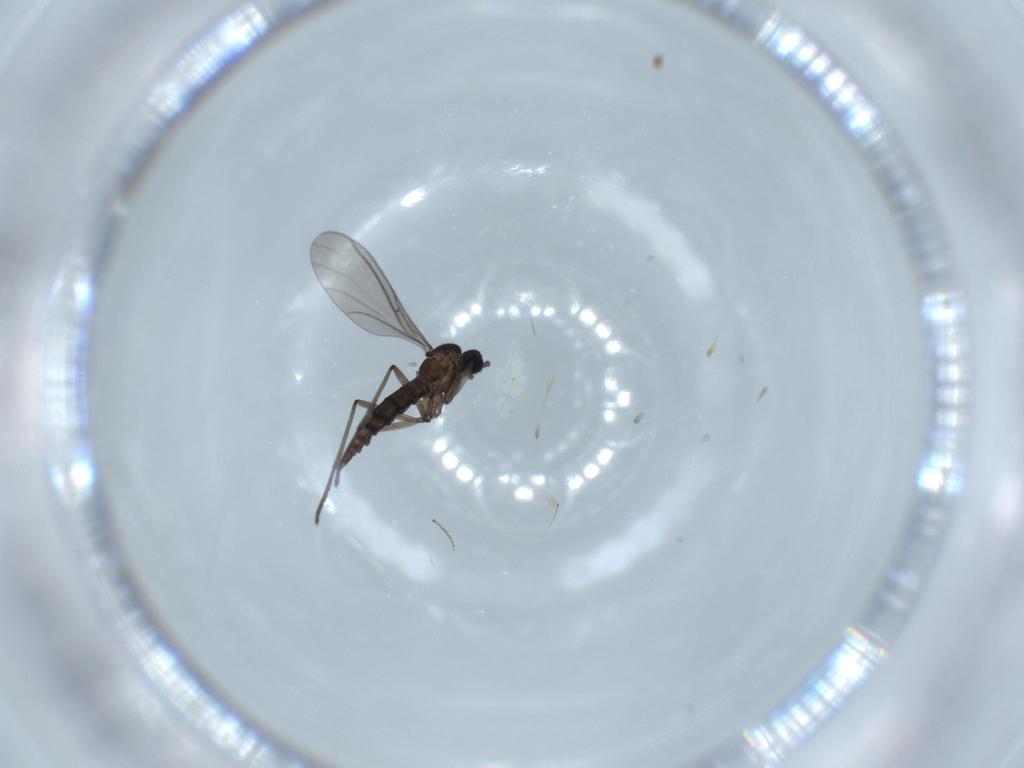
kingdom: Animalia
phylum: Arthropoda
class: Insecta
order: Diptera
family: Sciaridae
